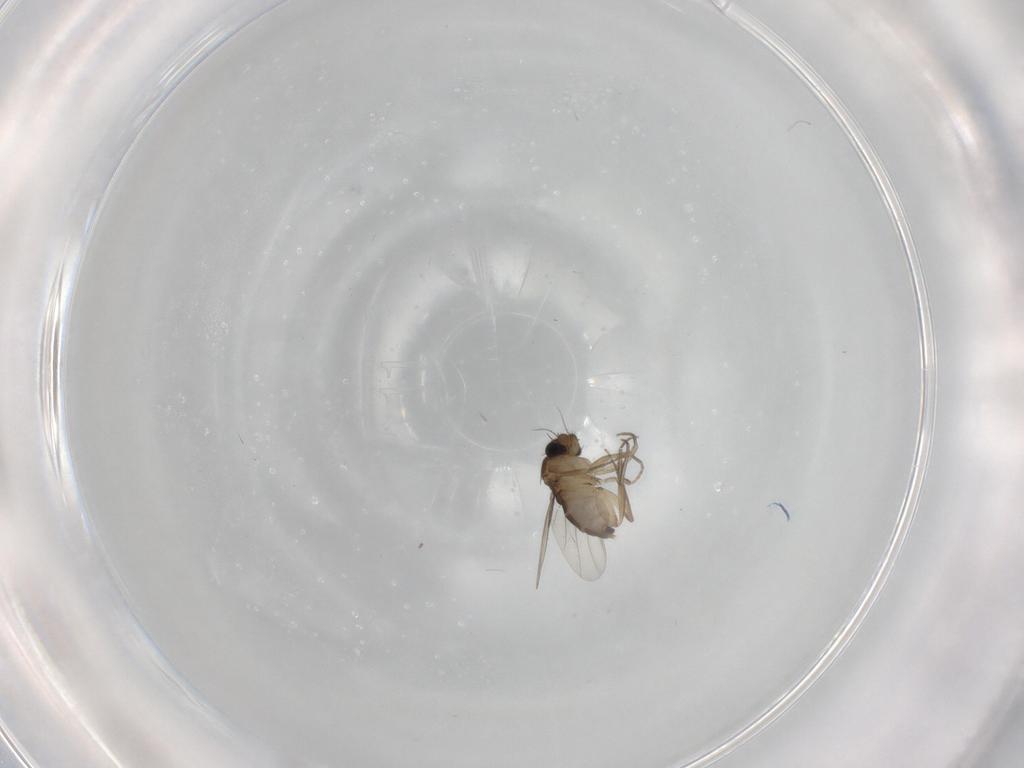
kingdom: Animalia
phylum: Arthropoda
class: Insecta
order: Diptera
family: Phoridae
